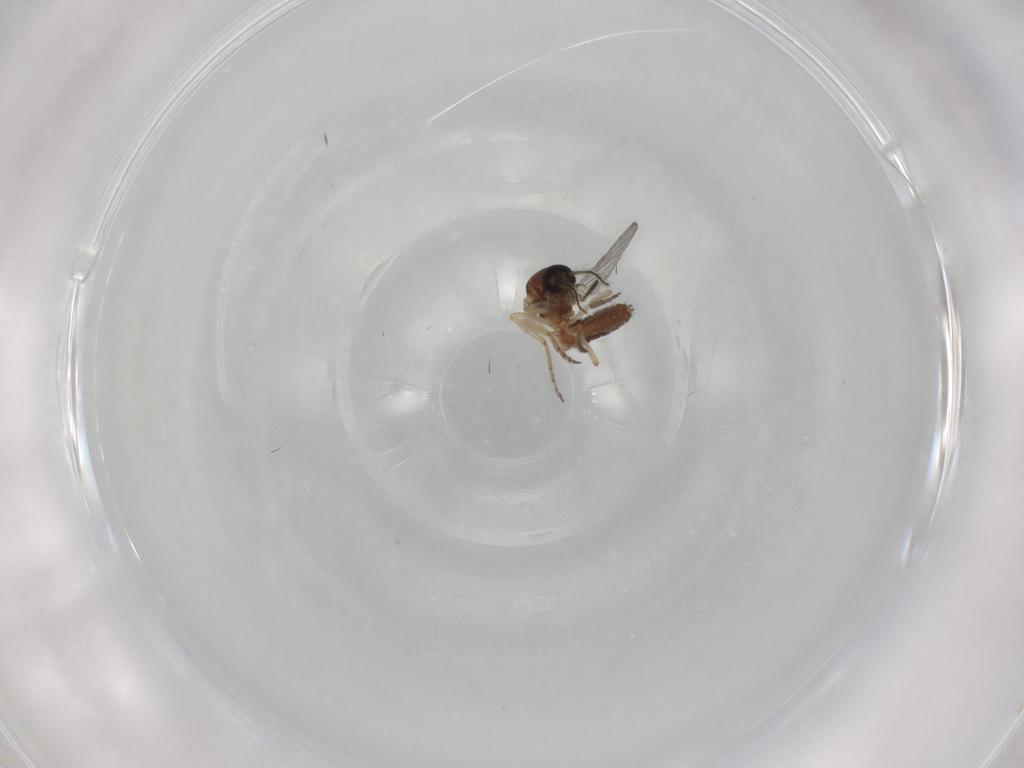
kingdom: Animalia
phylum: Arthropoda
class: Insecta
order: Diptera
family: Ceratopogonidae
